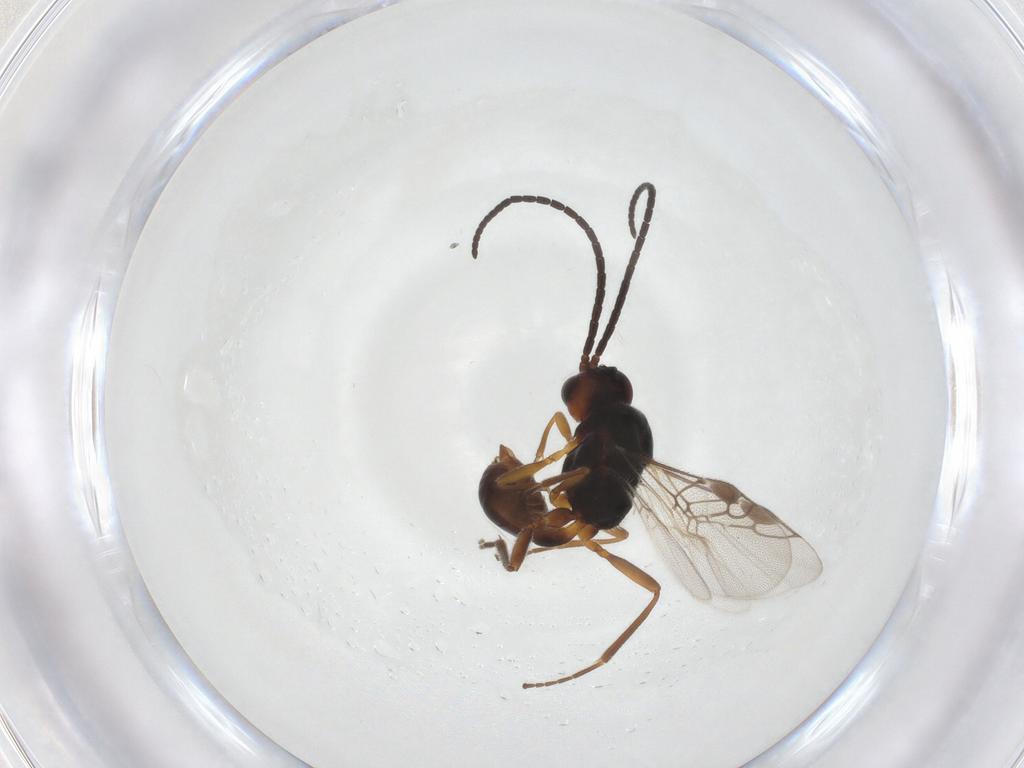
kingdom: Animalia
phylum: Arthropoda
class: Insecta
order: Hymenoptera
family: Braconidae
